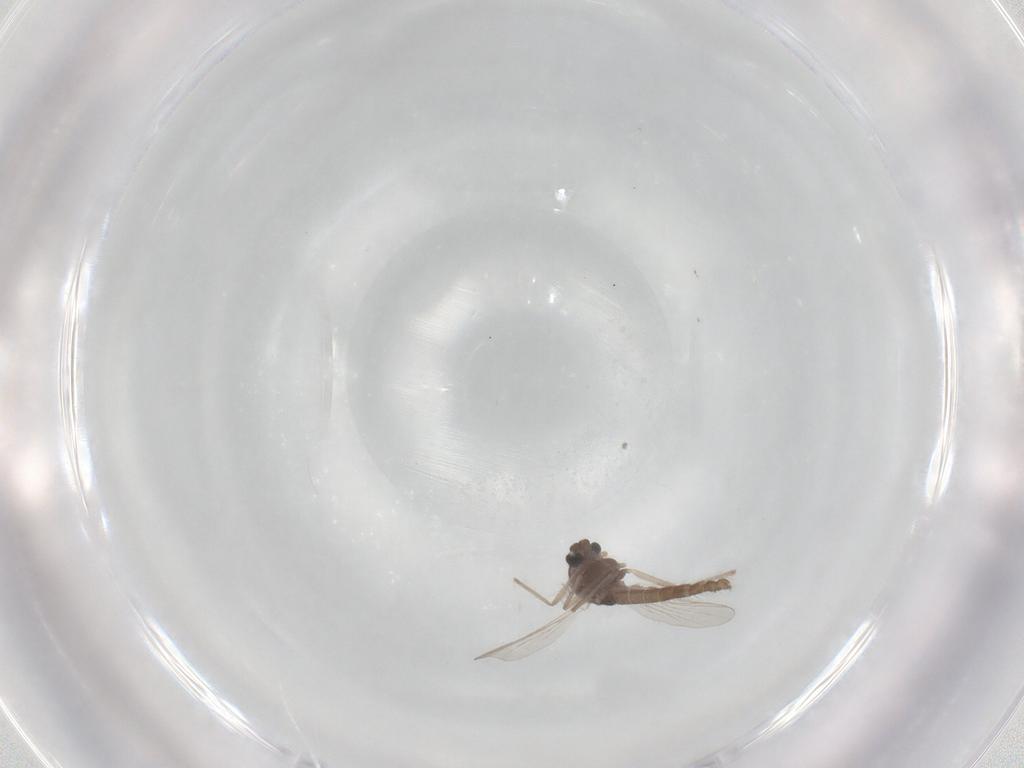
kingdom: Animalia
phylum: Arthropoda
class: Insecta
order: Diptera
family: Chironomidae
